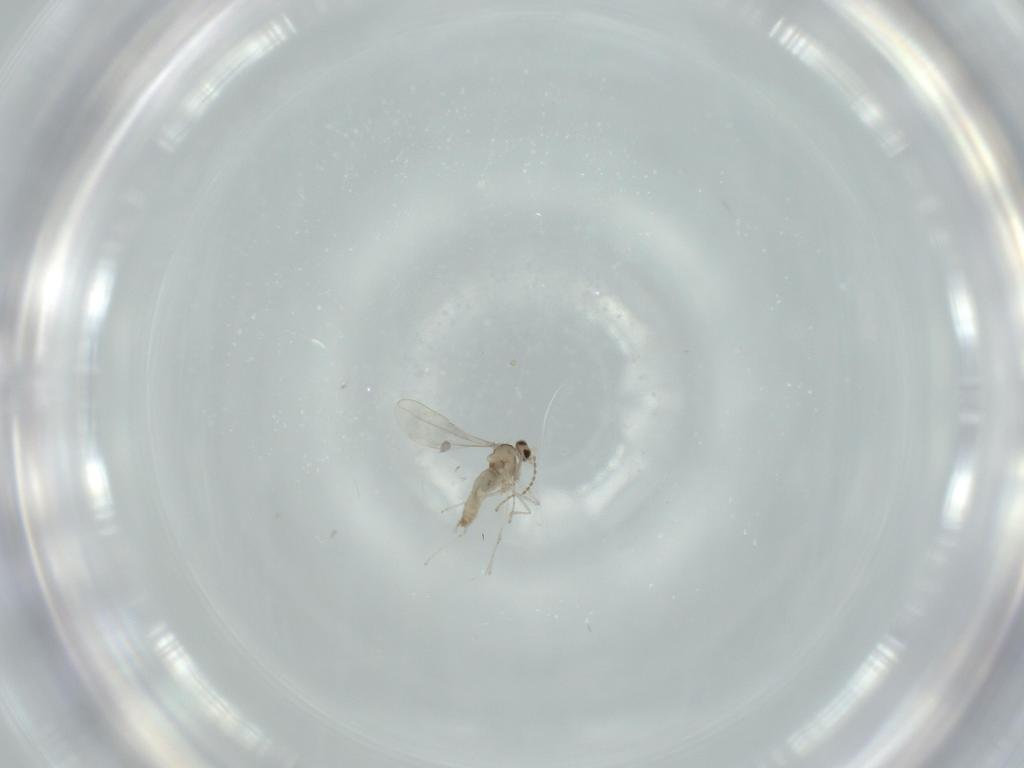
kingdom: Animalia
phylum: Arthropoda
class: Insecta
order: Diptera
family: Cecidomyiidae
